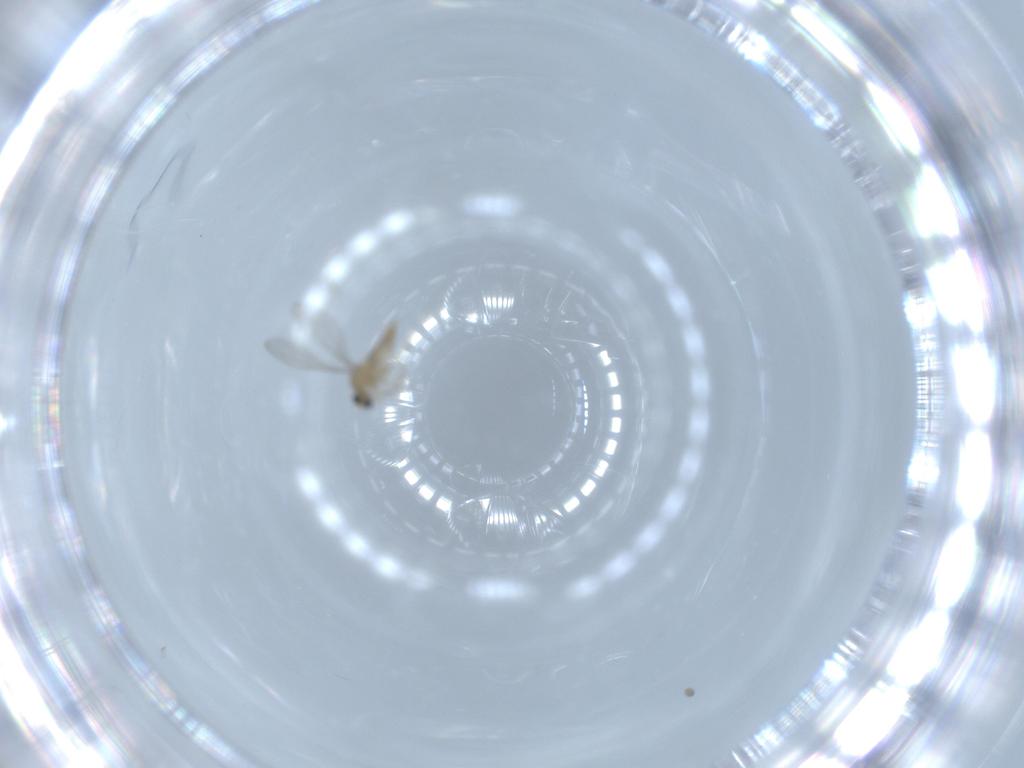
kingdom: Animalia
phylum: Arthropoda
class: Insecta
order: Diptera
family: Cecidomyiidae
